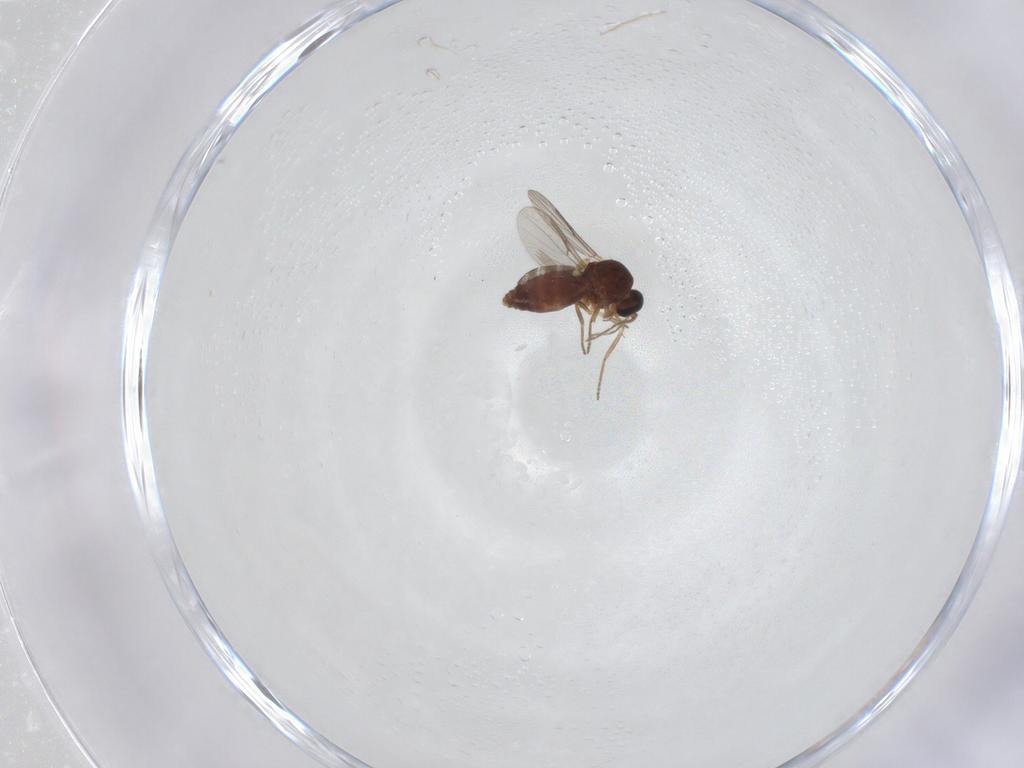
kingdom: Animalia
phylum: Arthropoda
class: Insecta
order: Diptera
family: Ceratopogonidae
